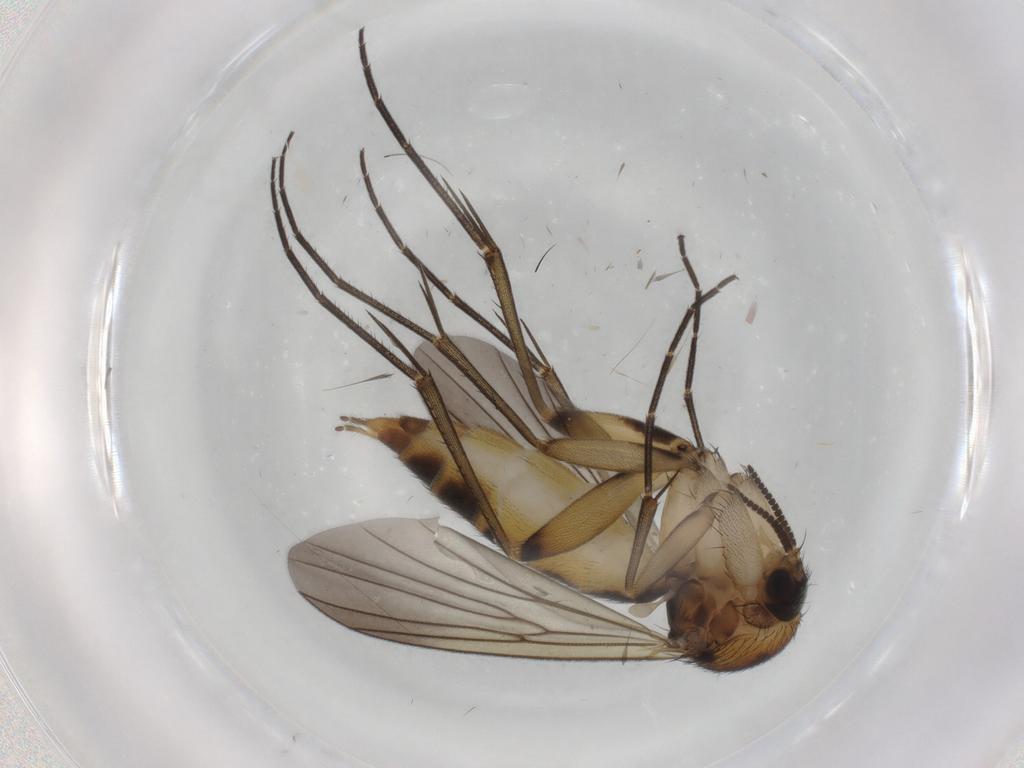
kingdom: Animalia
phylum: Arthropoda
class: Insecta
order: Diptera
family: Mycetophilidae
